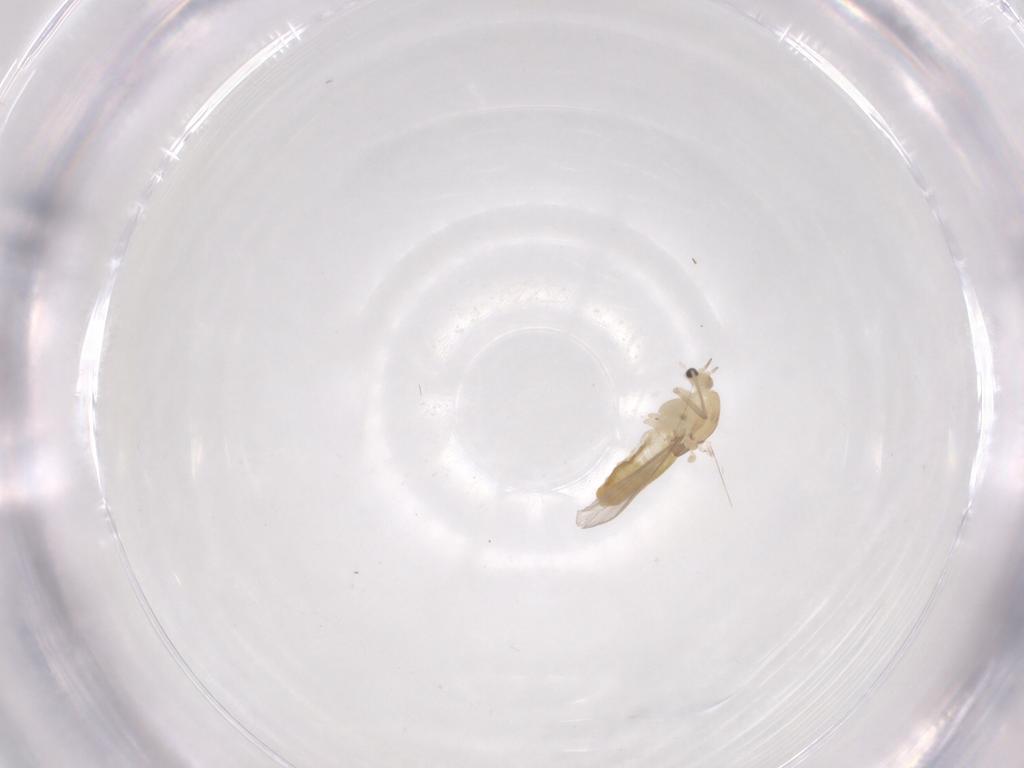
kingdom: Animalia
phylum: Arthropoda
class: Insecta
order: Diptera
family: Chironomidae
